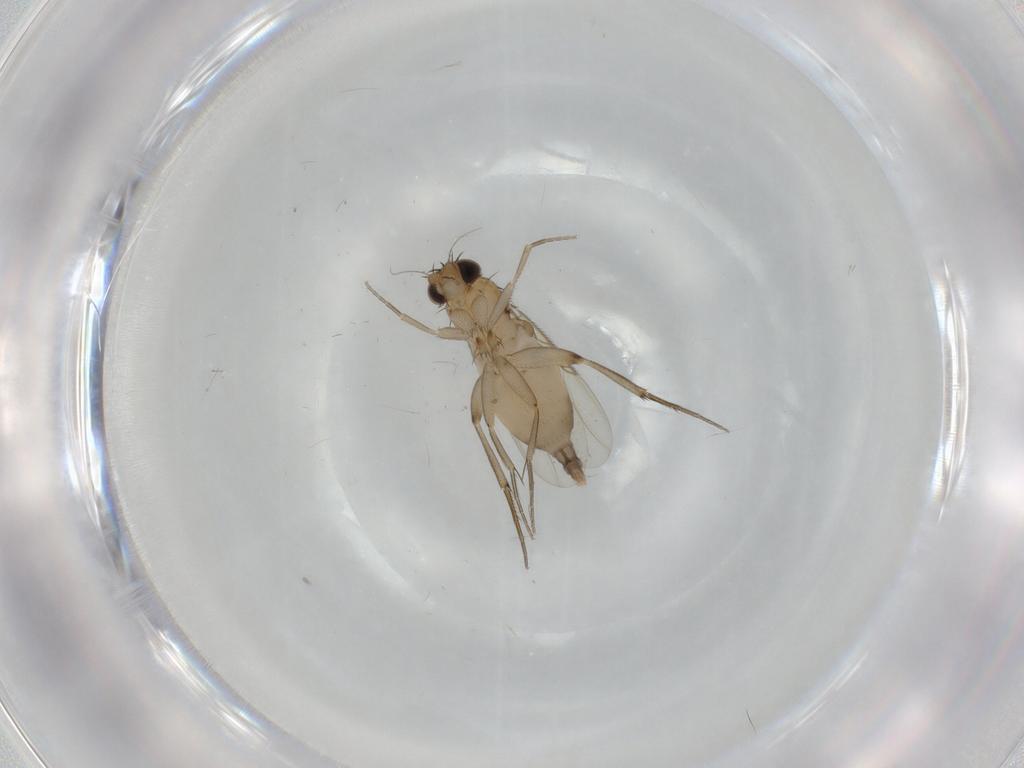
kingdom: Animalia
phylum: Arthropoda
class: Insecta
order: Diptera
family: Phoridae
